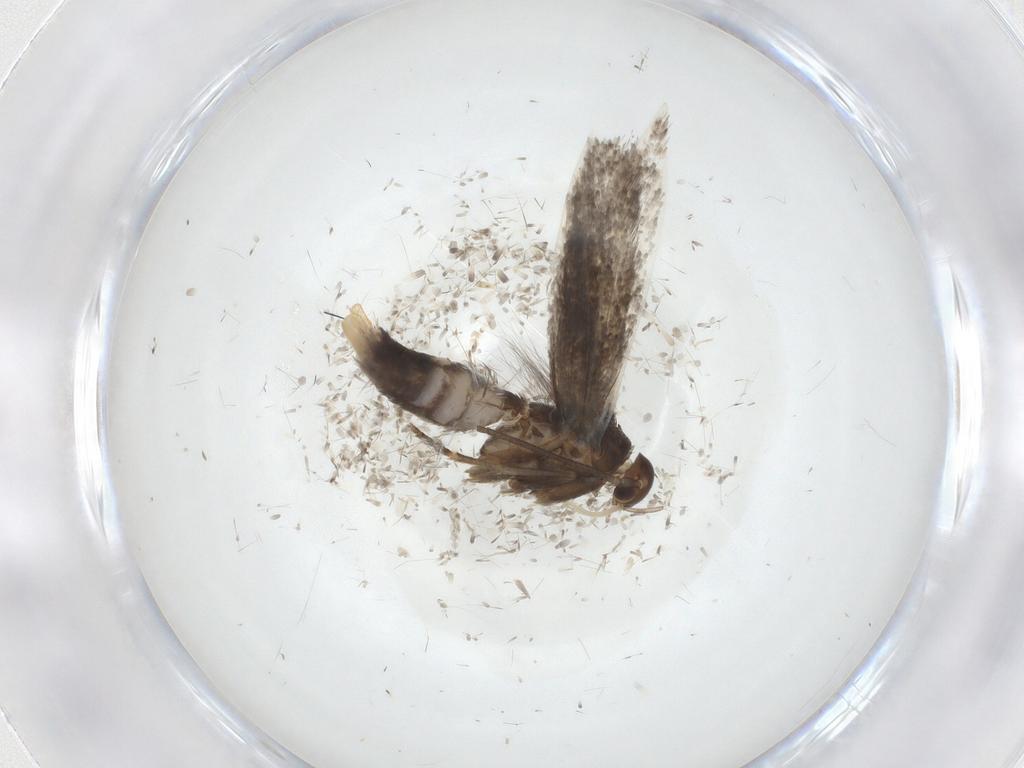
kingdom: Animalia
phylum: Arthropoda
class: Insecta
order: Lepidoptera
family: Elachistidae
